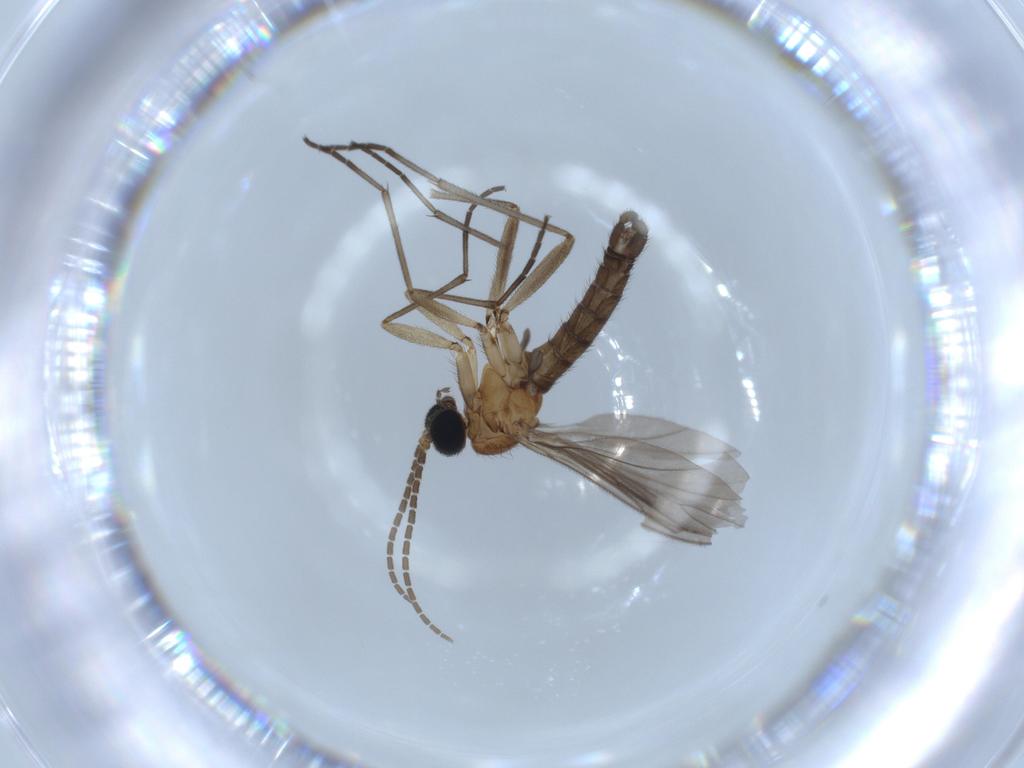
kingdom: Animalia
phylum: Arthropoda
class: Insecta
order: Diptera
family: Sciaridae
